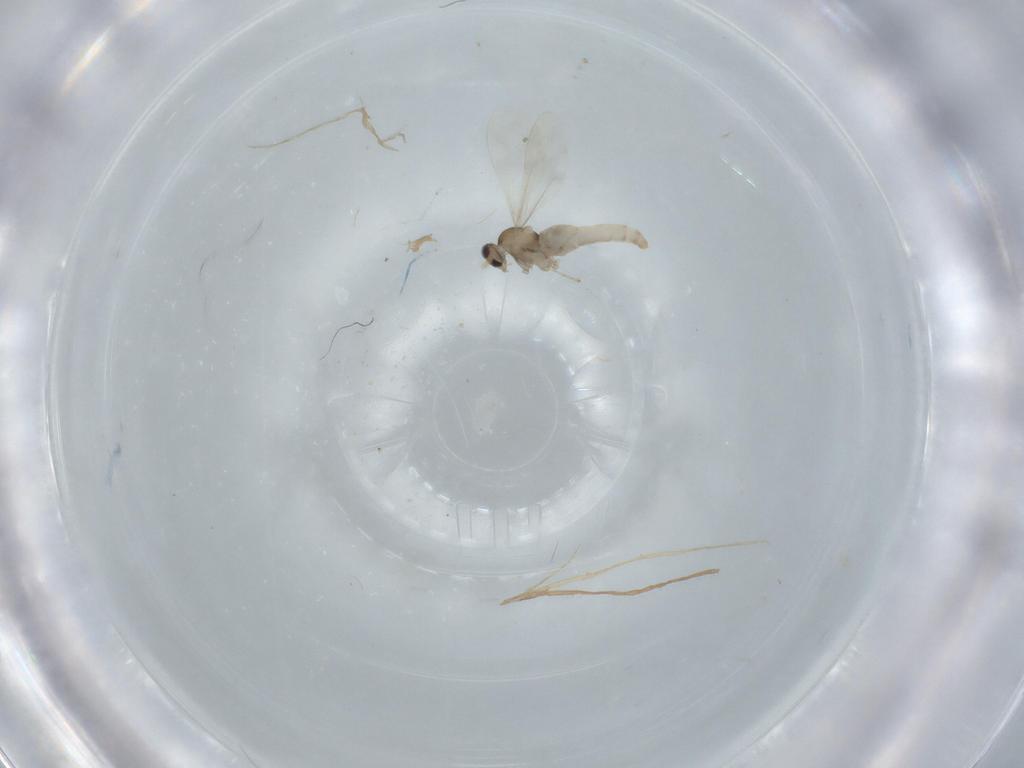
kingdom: Animalia
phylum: Arthropoda
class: Insecta
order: Diptera
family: Cecidomyiidae
